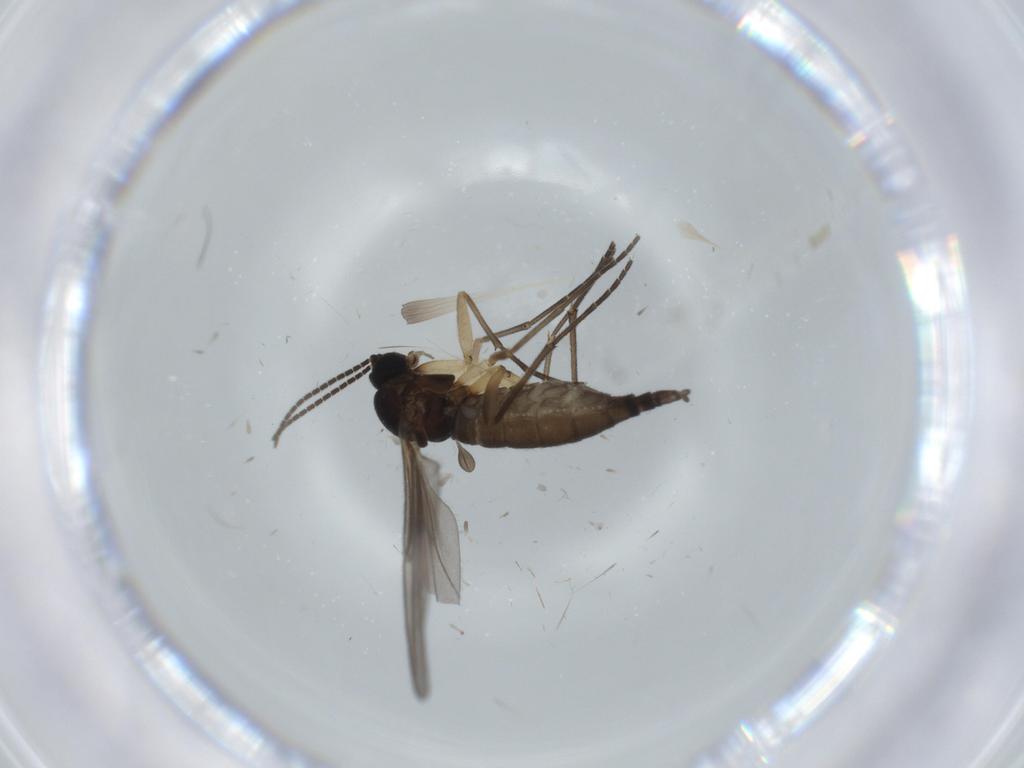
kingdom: Animalia
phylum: Arthropoda
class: Insecta
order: Diptera
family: Sciaridae
